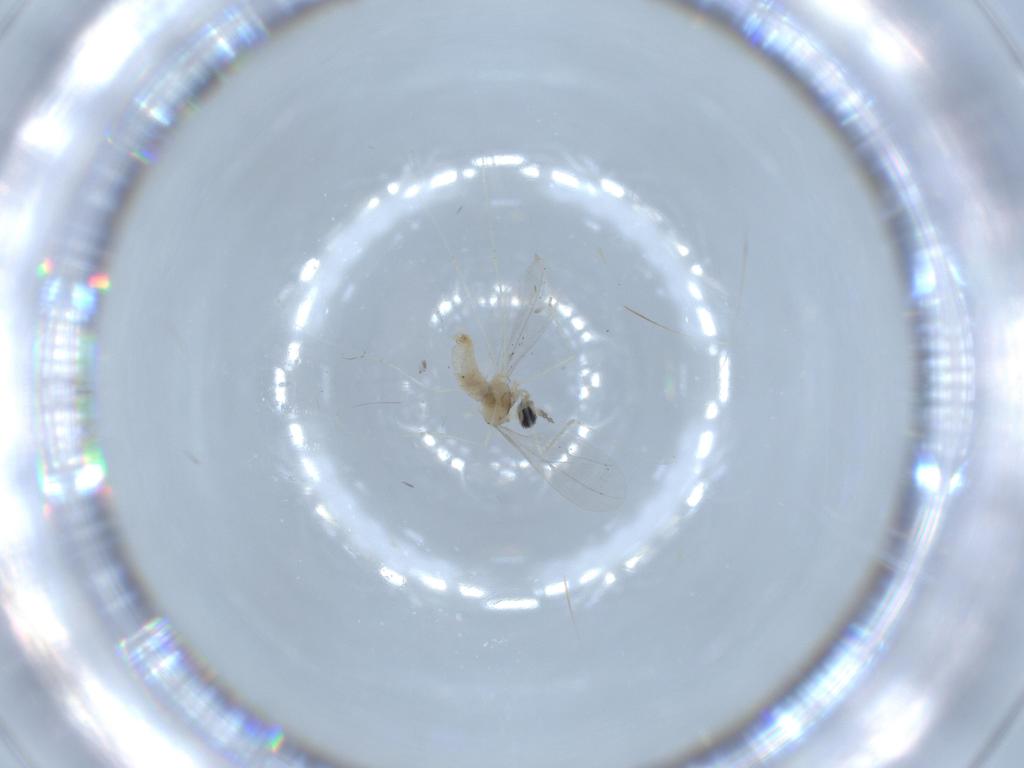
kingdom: Animalia
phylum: Arthropoda
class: Insecta
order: Diptera
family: Cecidomyiidae
